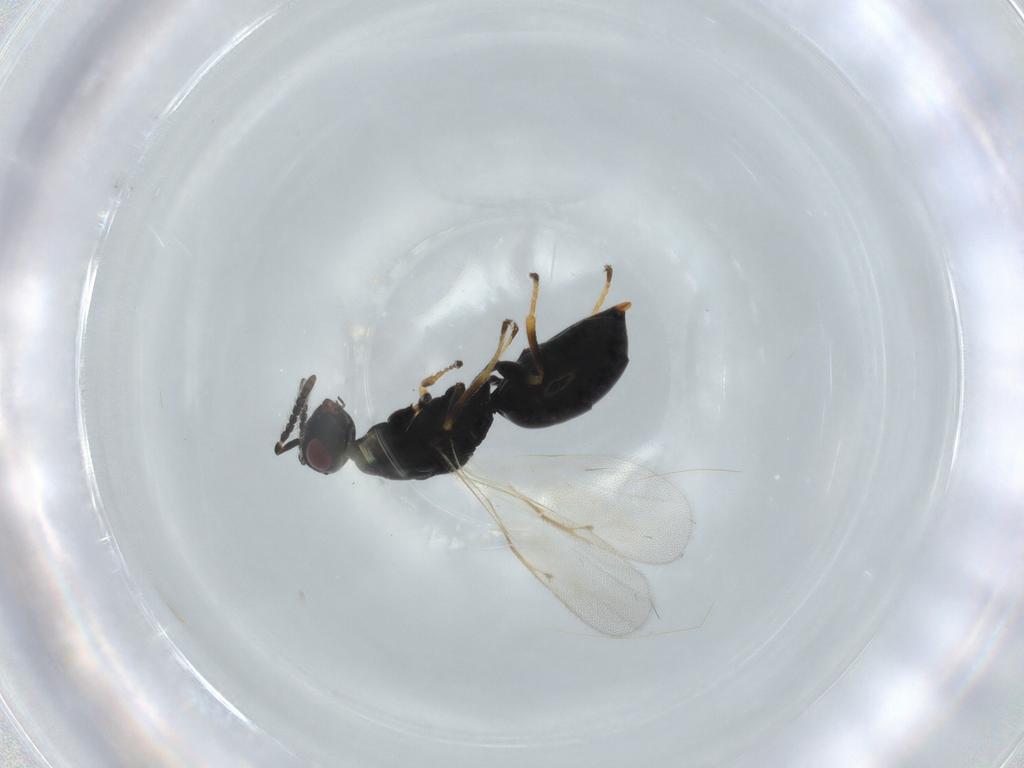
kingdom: Animalia
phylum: Arthropoda
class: Insecta
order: Hymenoptera
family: Eurytomidae
